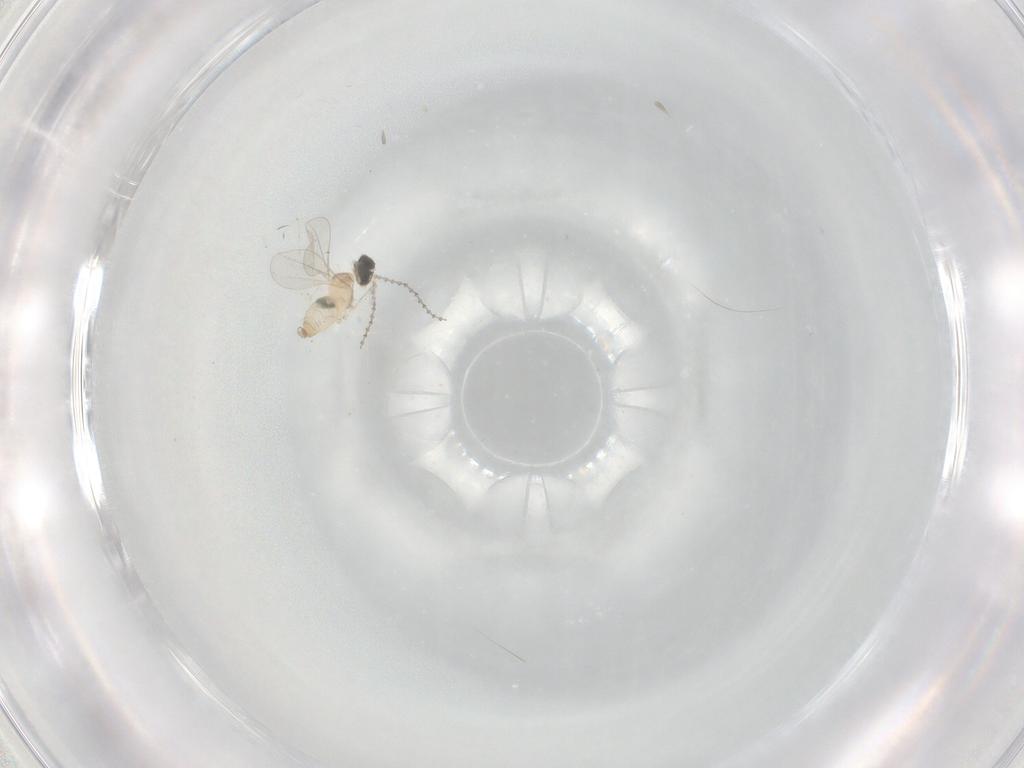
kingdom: Animalia
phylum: Arthropoda
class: Insecta
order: Diptera
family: Cecidomyiidae
